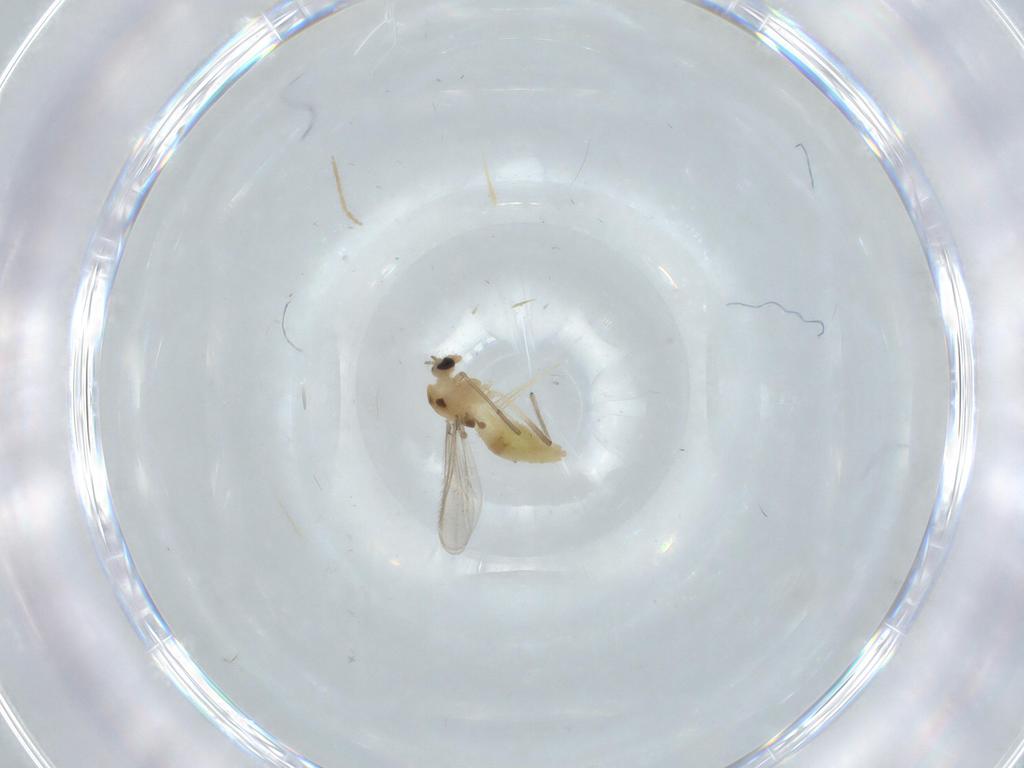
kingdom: Animalia
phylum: Arthropoda
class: Insecta
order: Diptera
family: Chironomidae
